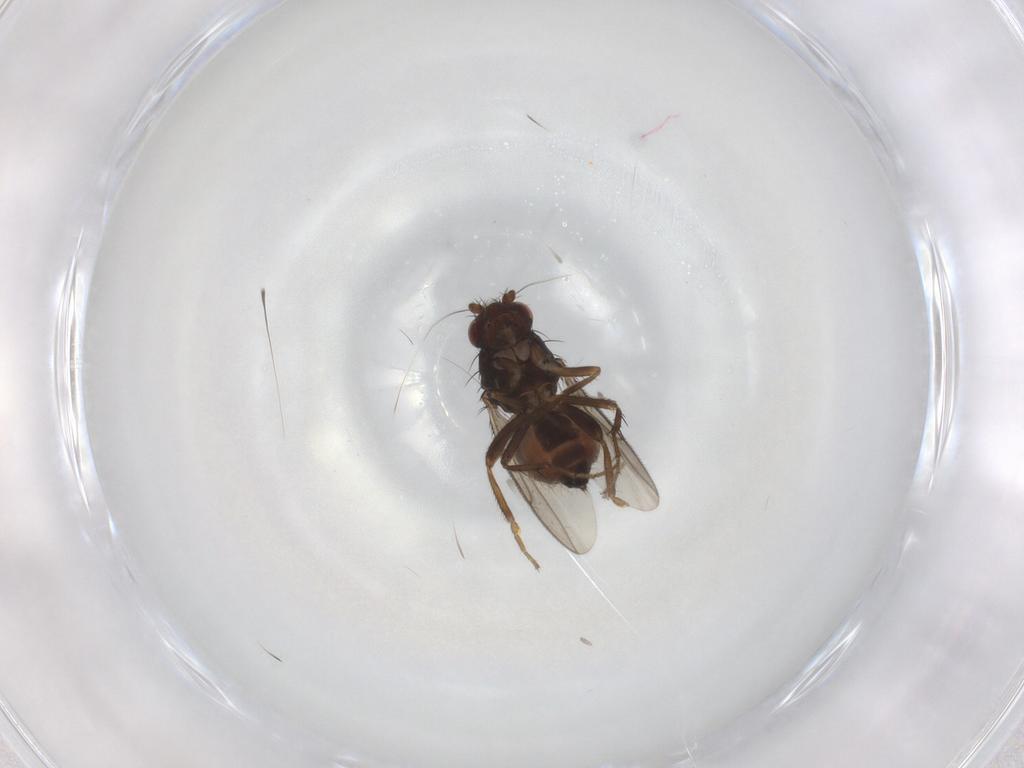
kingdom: Animalia
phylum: Arthropoda
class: Insecta
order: Diptera
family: Sphaeroceridae
